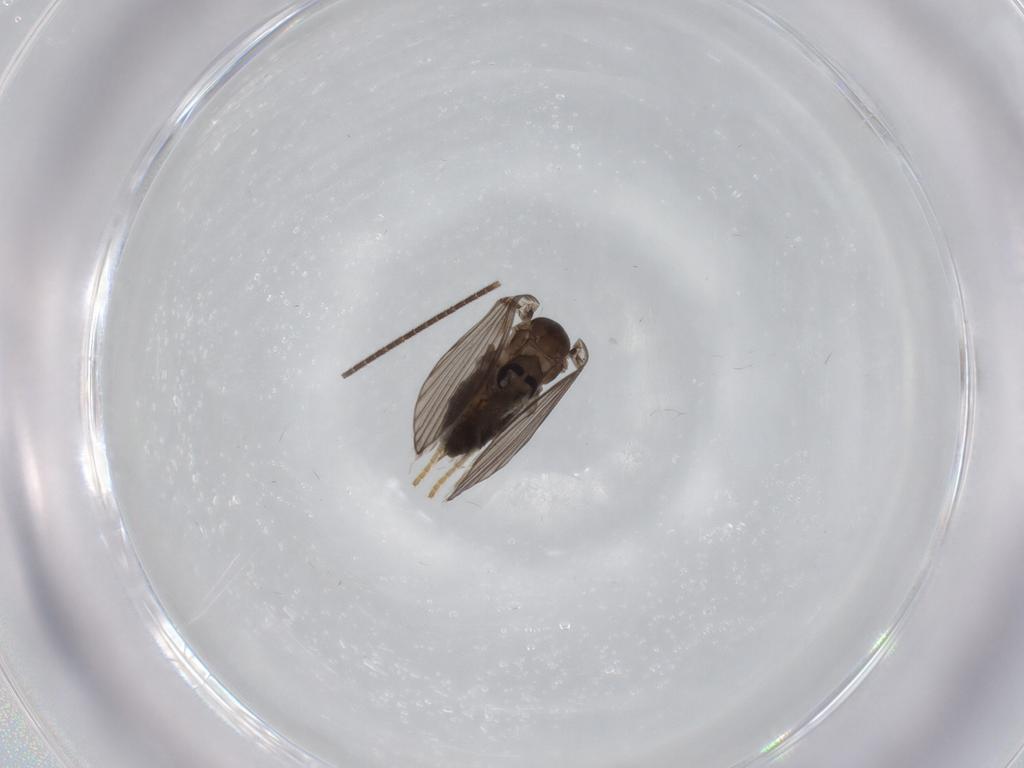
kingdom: Animalia
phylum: Arthropoda
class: Insecta
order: Diptera
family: Psychodidae
